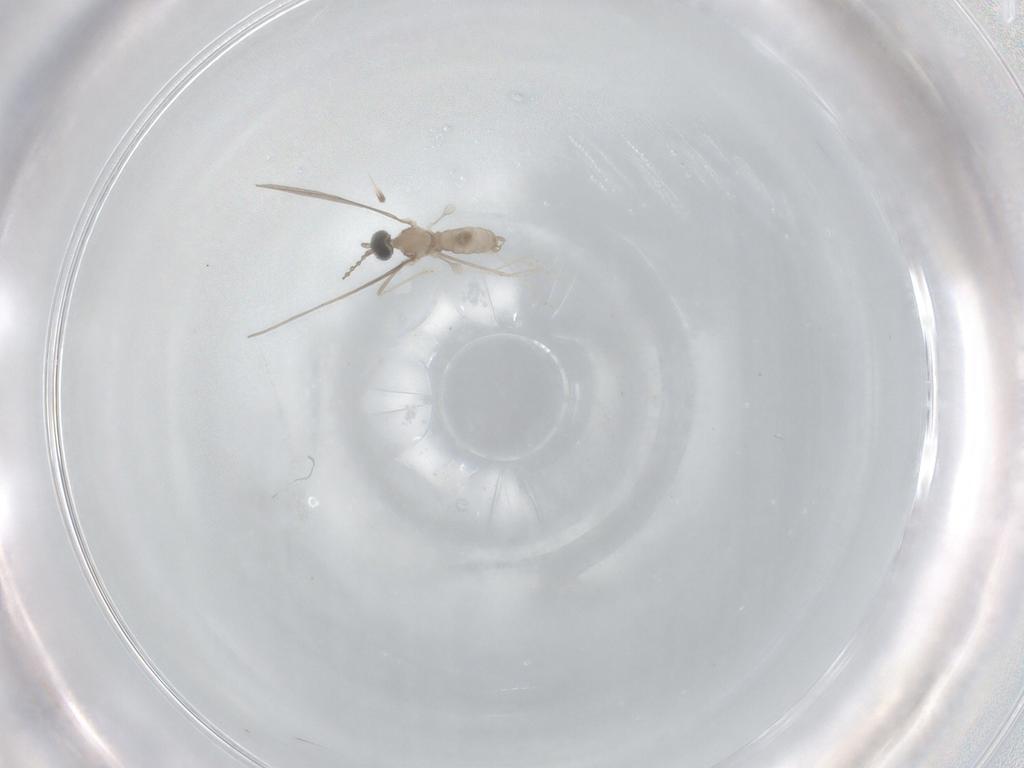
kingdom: Animalia
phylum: Arthropoda
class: Insecta
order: Diptera
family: Cecidomyiidae
